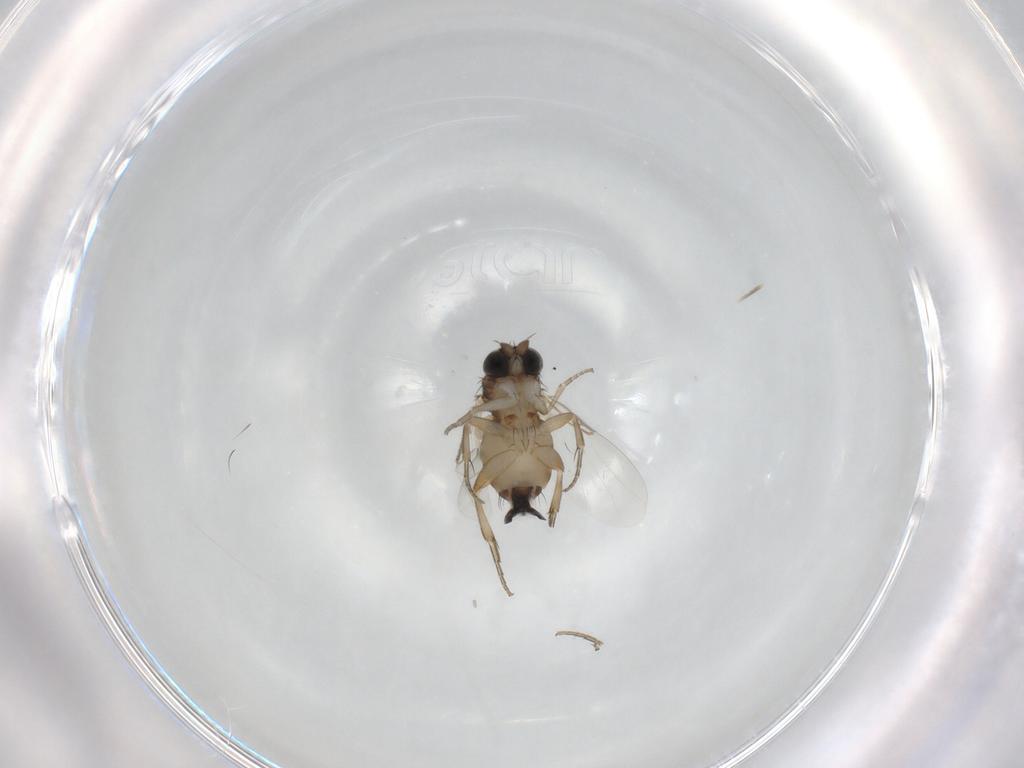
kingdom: Animalia
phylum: Arthropoda
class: Insecta
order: Diptera
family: Phoridae
